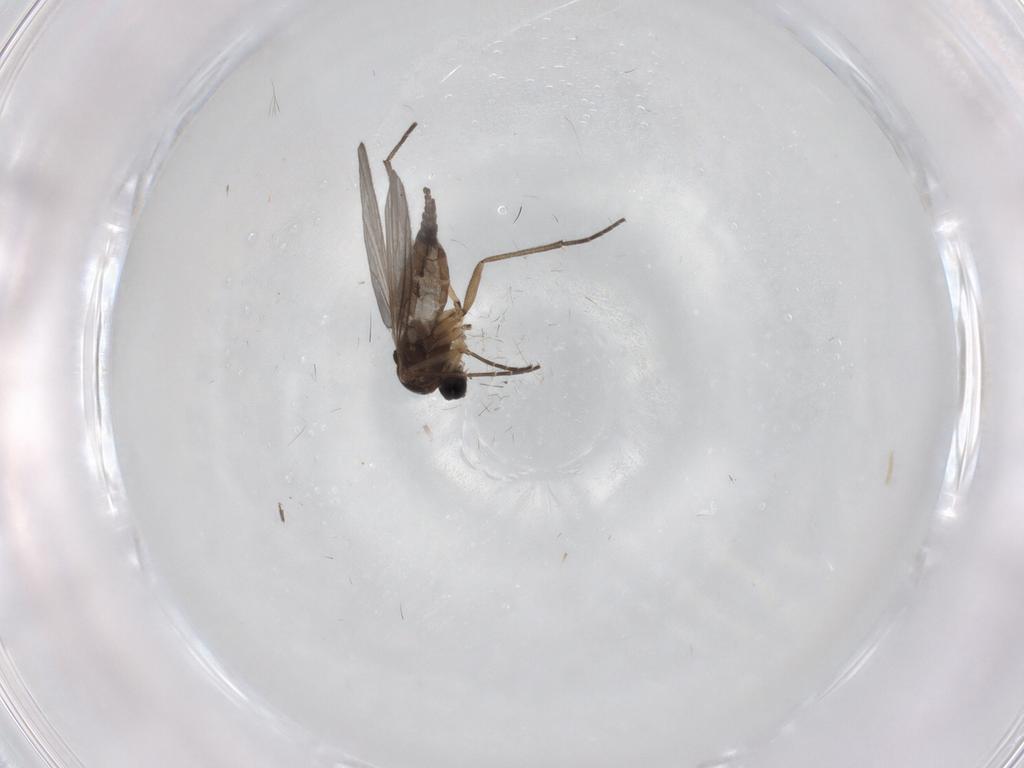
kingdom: Animalia
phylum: Arthropoda
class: Insecta
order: Diptera
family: Sciaridae
